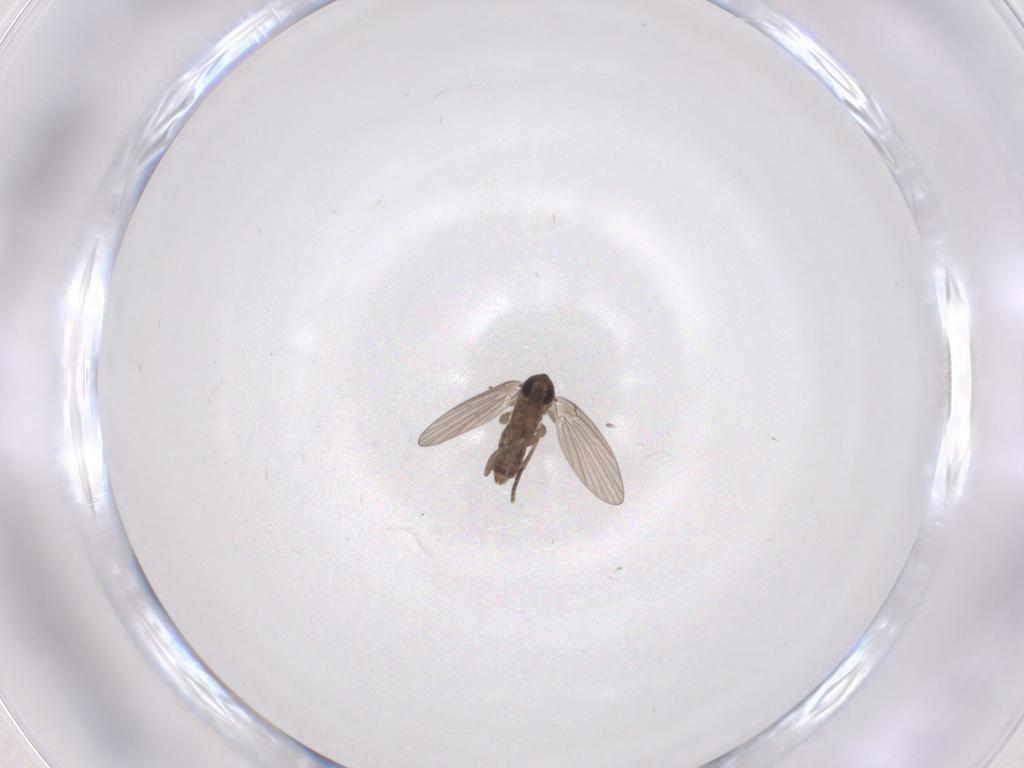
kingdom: Animalia
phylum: Arthropoda
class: Insecta
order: Diptera
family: Psychodidae
